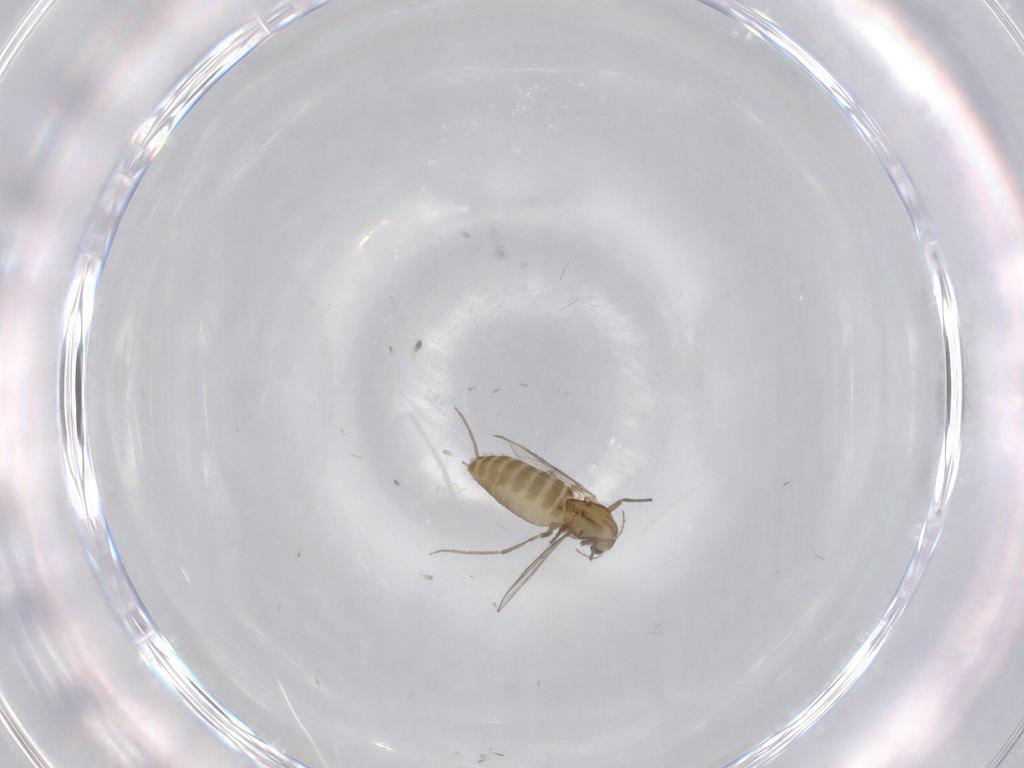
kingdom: Animalia
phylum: Arthropoda
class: Insecta
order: Diptera
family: Chironomidae
